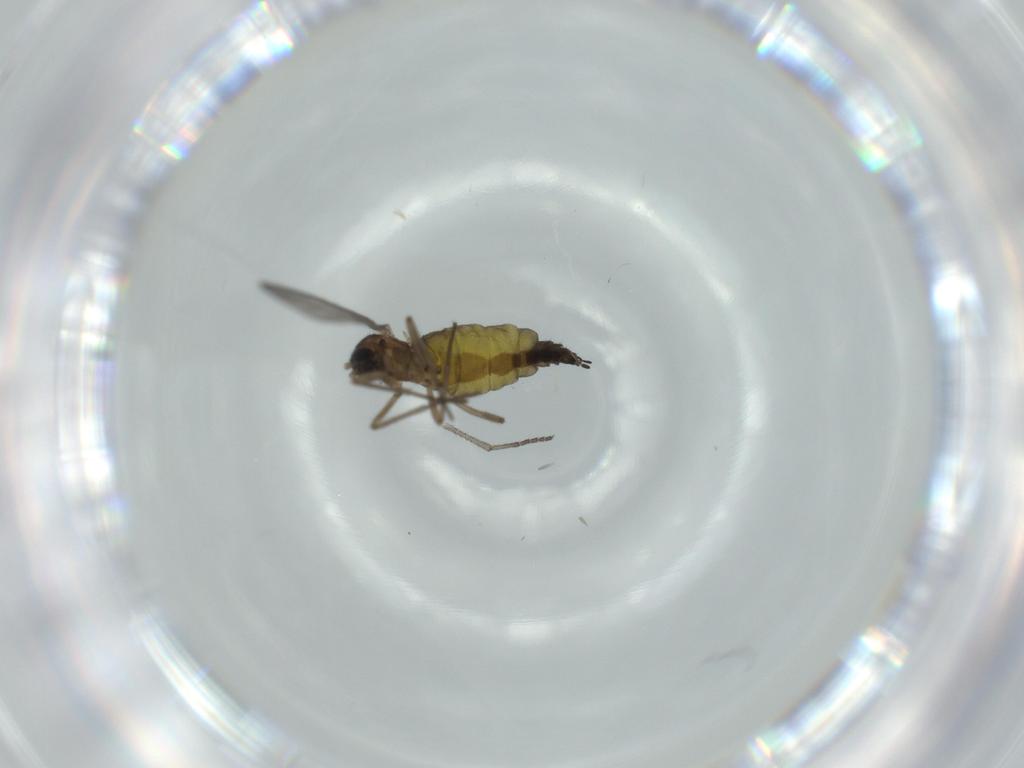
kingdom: Animalia
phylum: Arthropoda
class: Insecta
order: Diptera
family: Sciaridae
